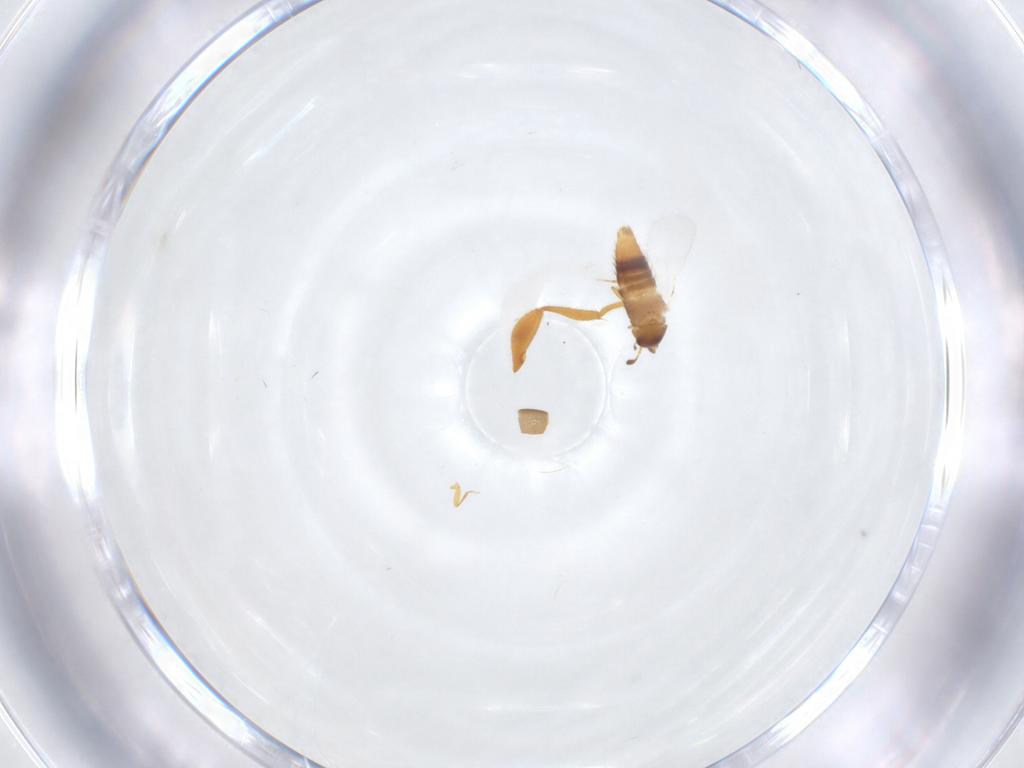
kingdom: Animalia
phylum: Arthropoda
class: Insecta
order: Coleoptera
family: Staphylinidae
